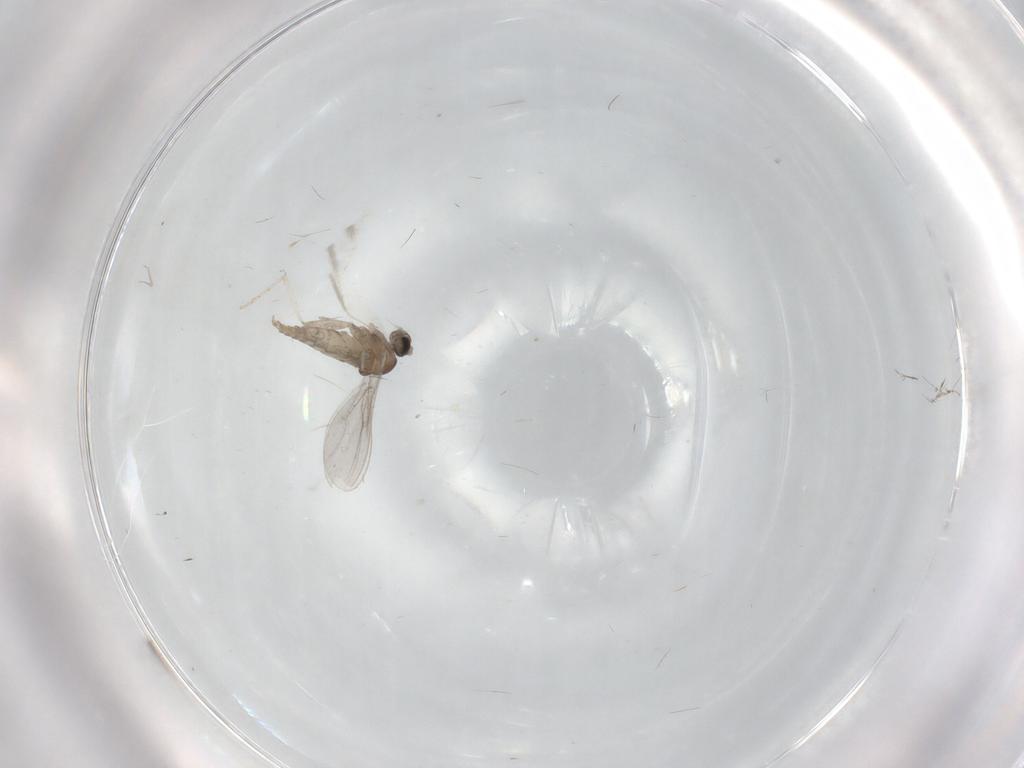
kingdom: Animalia
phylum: Arthropoda
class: Insecta
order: Diptera
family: Cecidomyiidae
